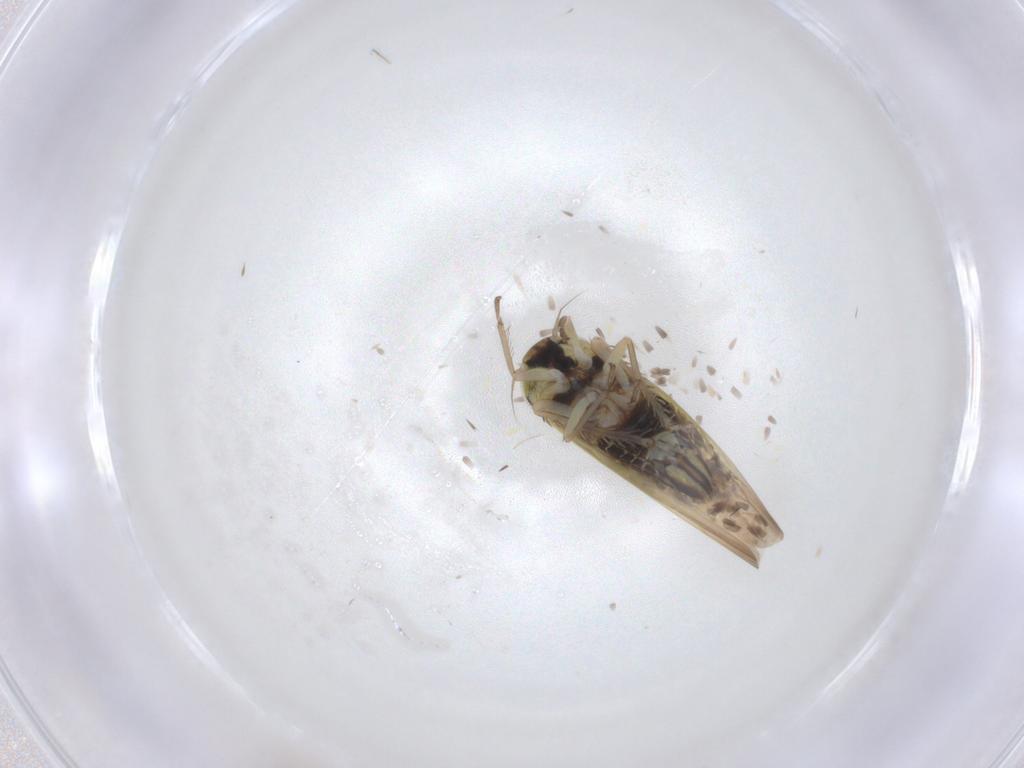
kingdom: Animalia
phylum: Arthropoda
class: Insecta
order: Hemiptera
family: Cicadellidae
